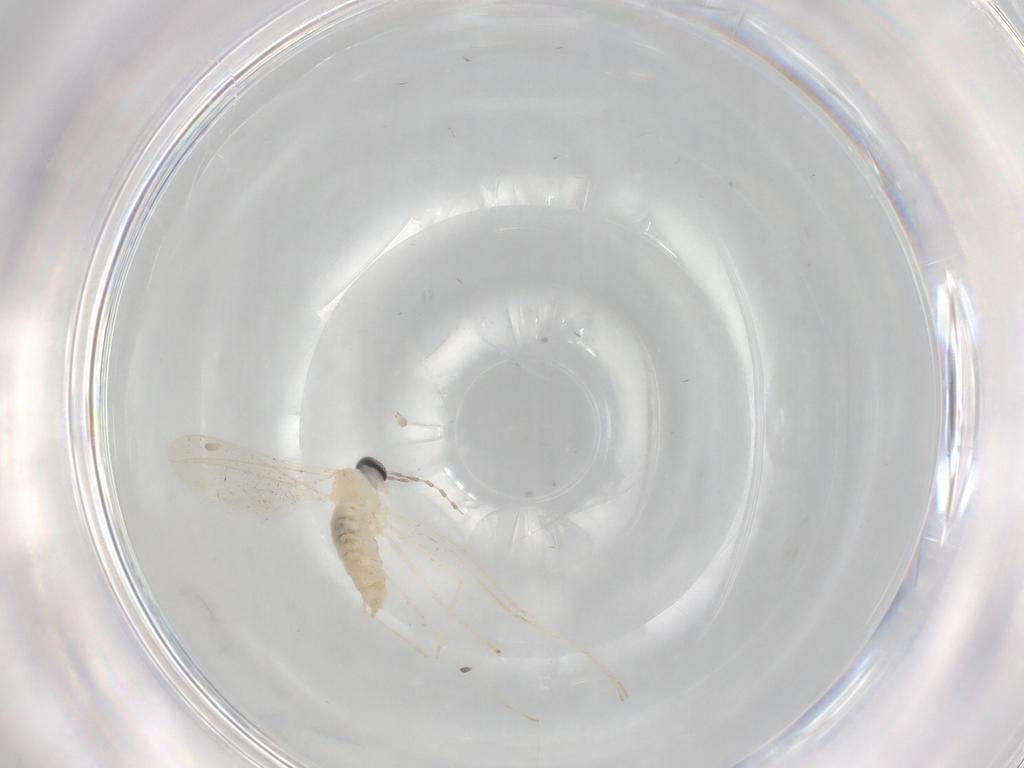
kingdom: Animalia
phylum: Arthropoda
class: Insecta
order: Diptera
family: Cecidomyiidae
